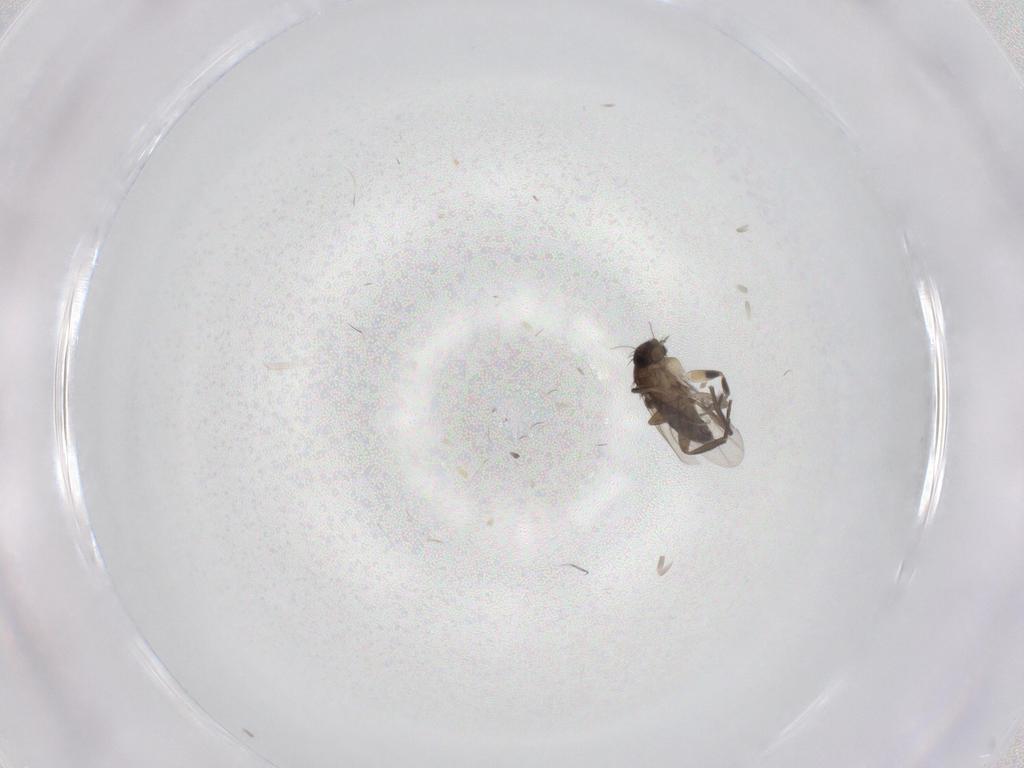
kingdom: Animalia
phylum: Arthropoda
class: Insecta
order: Diptera
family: Phoridae
